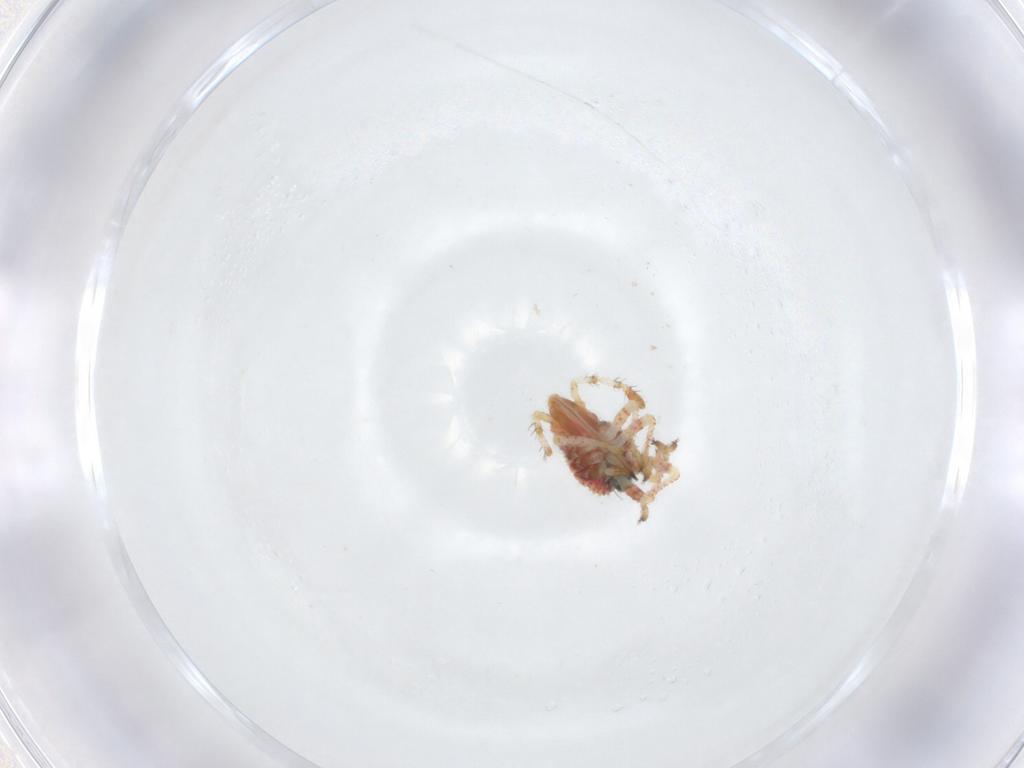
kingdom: Animalia
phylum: Arthropoda
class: Insecta
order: Hemiptera
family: Rhopalidae
